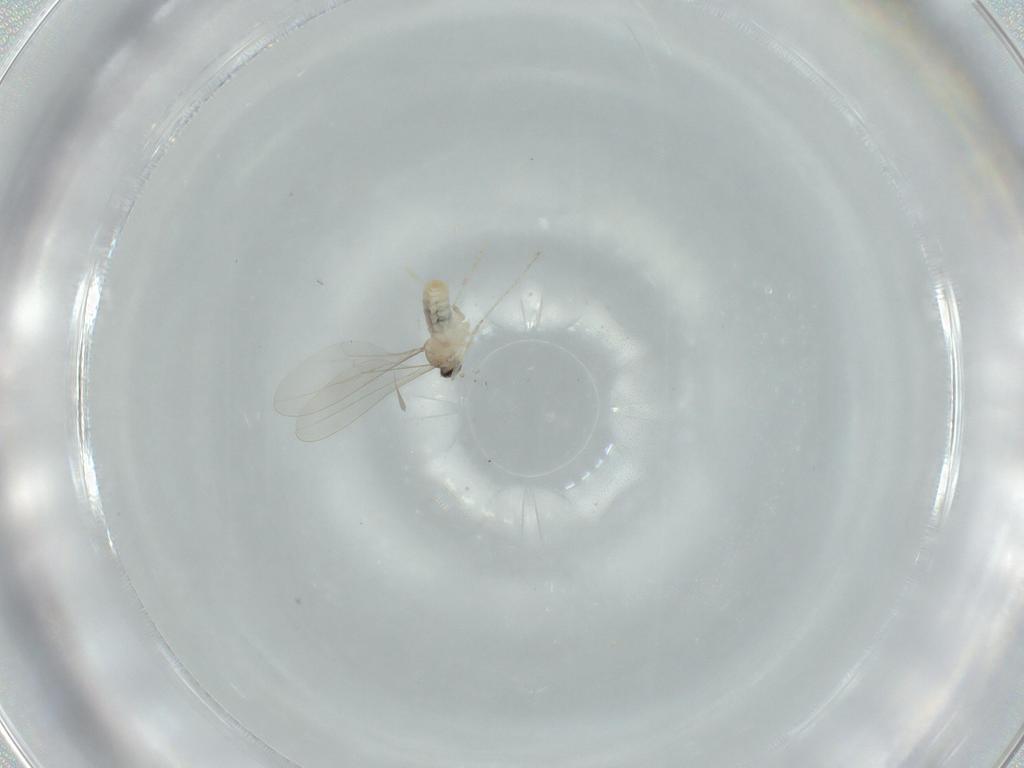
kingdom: Animalia
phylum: Arthropoda
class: Insecta
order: Diptera
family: Cecidomyiidae
